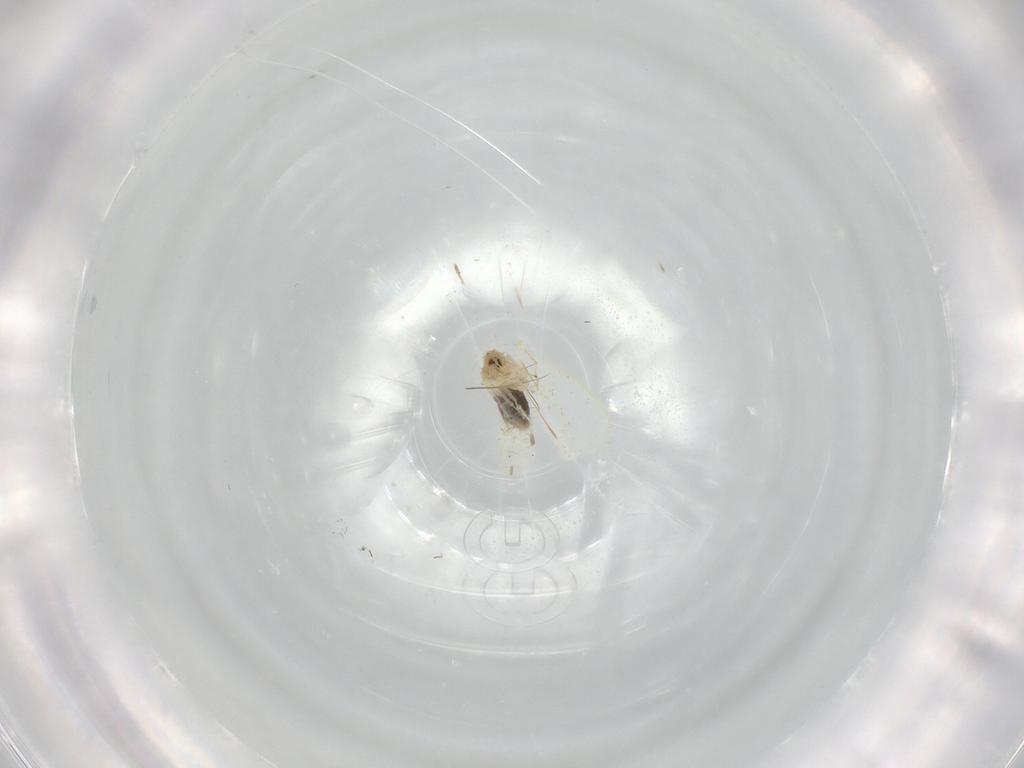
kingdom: Animalia
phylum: Arthropoda
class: Insecta
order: Hemiptera
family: Aleyrodidae
